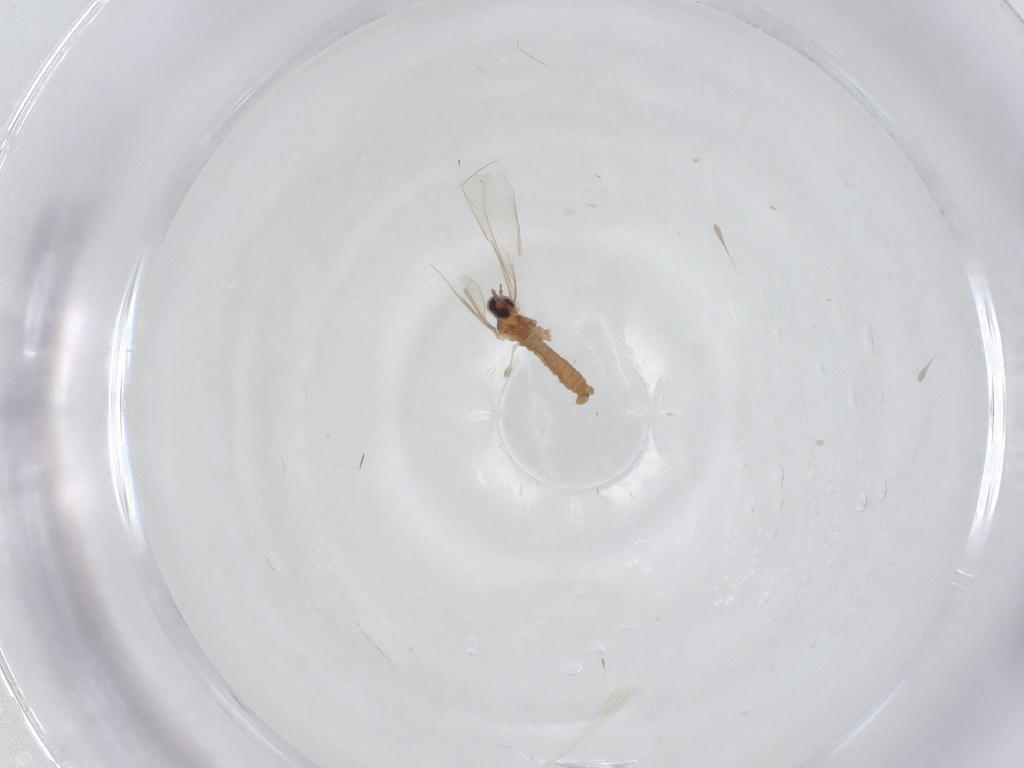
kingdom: Animalia
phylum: Arthropoda
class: Insecta
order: Diptera
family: Cecidomyiidae
